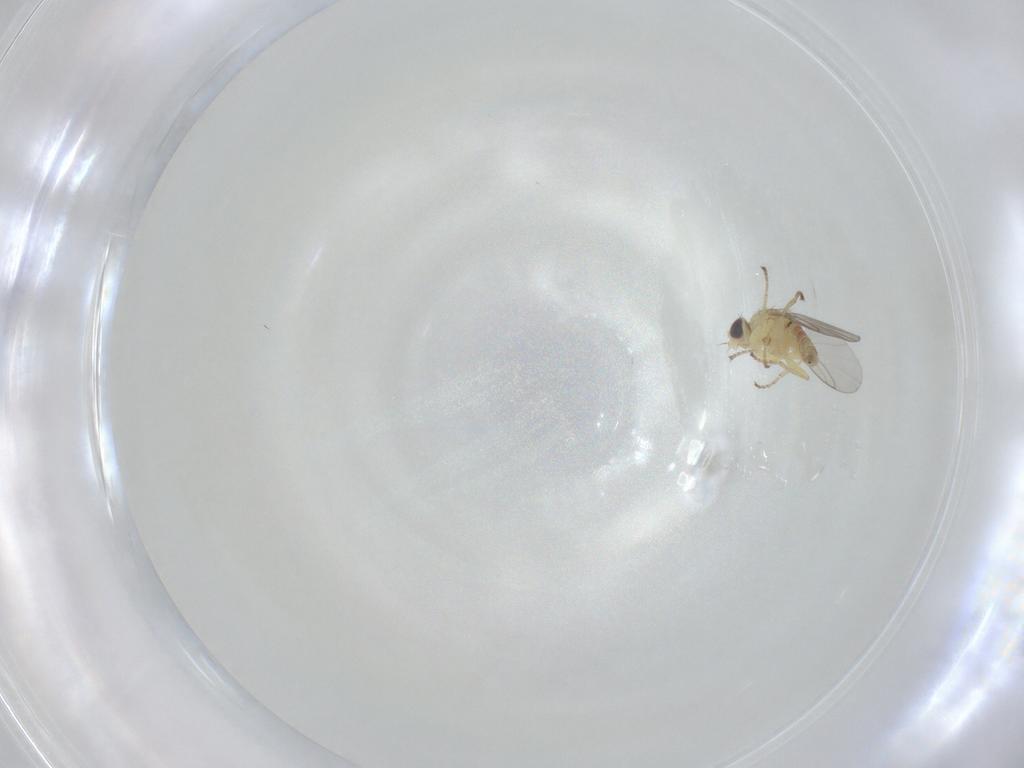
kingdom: Animalia
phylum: Arthropoda
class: Insecta
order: Diptera
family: Agromyzidae
